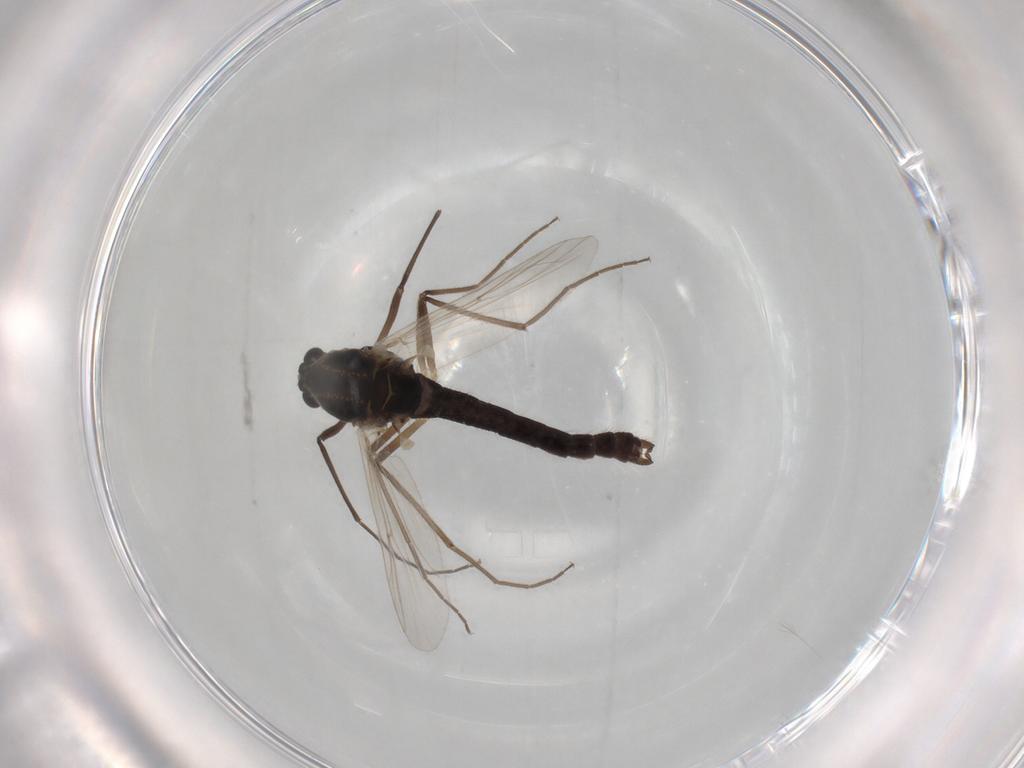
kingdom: Animalia
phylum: Arthropoda
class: Insecta
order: Diptera
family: Chironomidae
